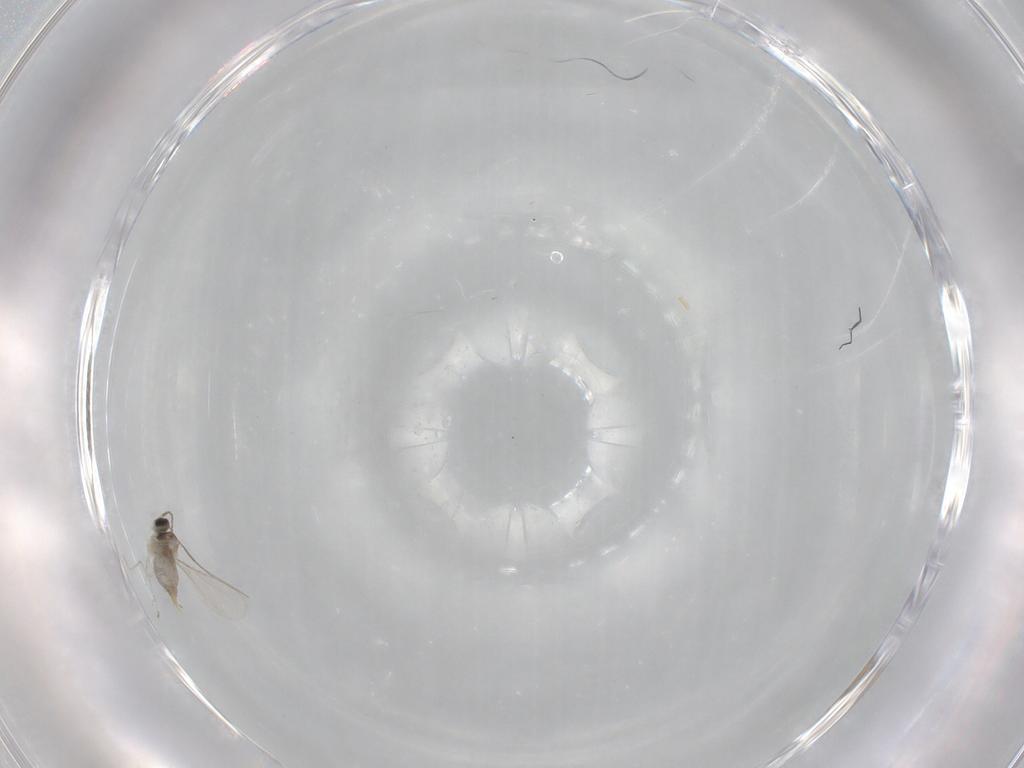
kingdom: Animalia
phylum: Arthropoda
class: Insecta
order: Diptera
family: Ceratopogonidae
